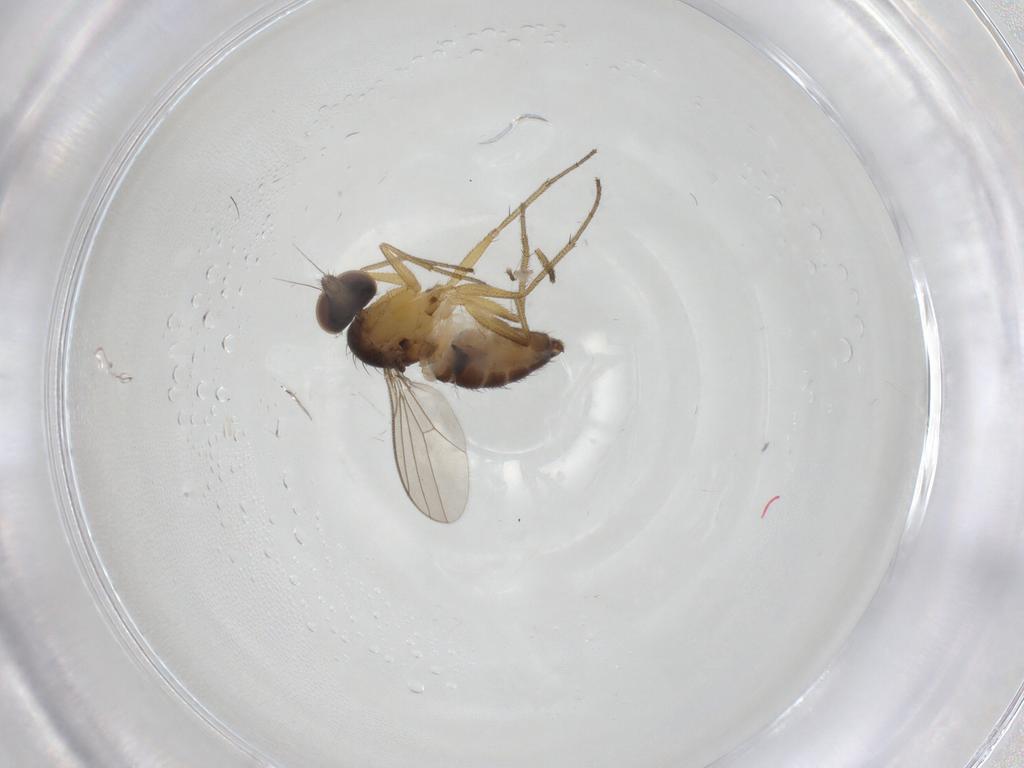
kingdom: Animalia
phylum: Arthropoda
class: Insecta
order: Diptera
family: Dolichopodidae
